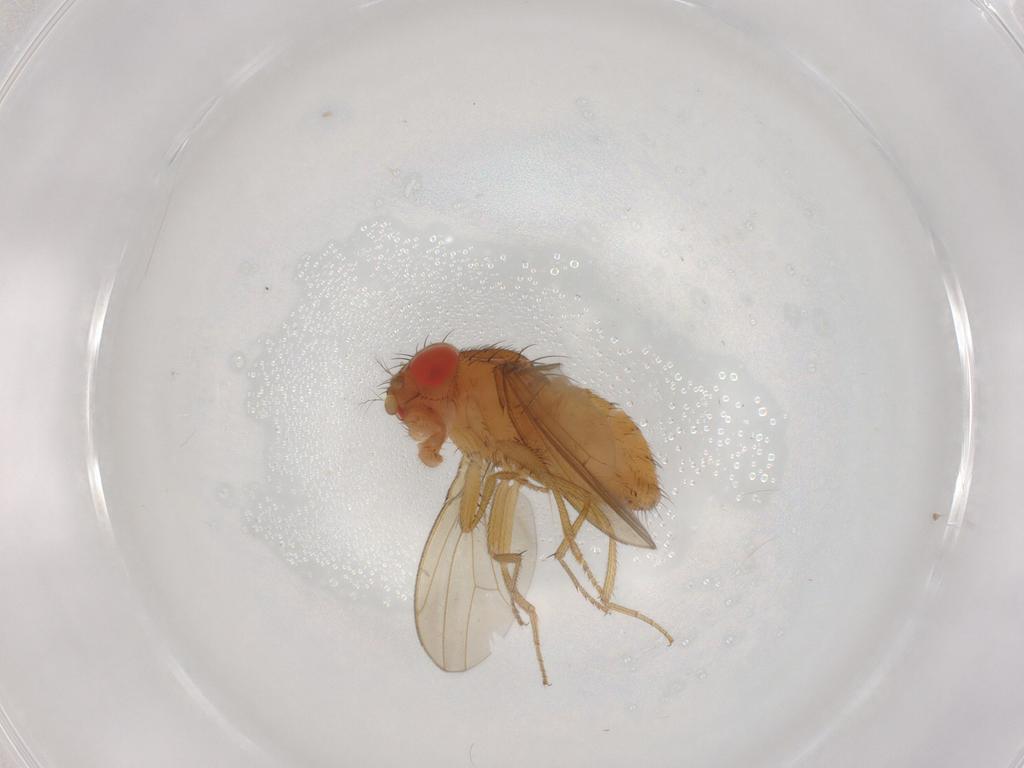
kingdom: Animalia
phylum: Arthropoda
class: Insecta
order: Diptera
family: Drosophilidae
